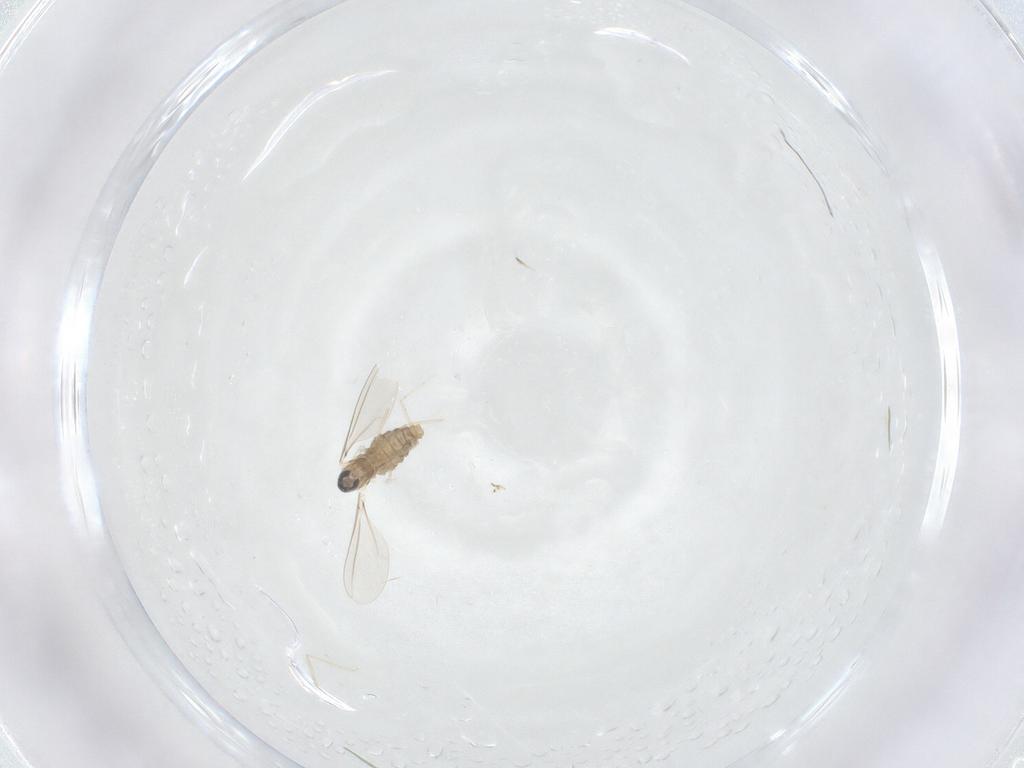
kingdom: Animalia
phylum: Arthropoda
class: Insecta
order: Diptera
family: Cecidomyiidae
